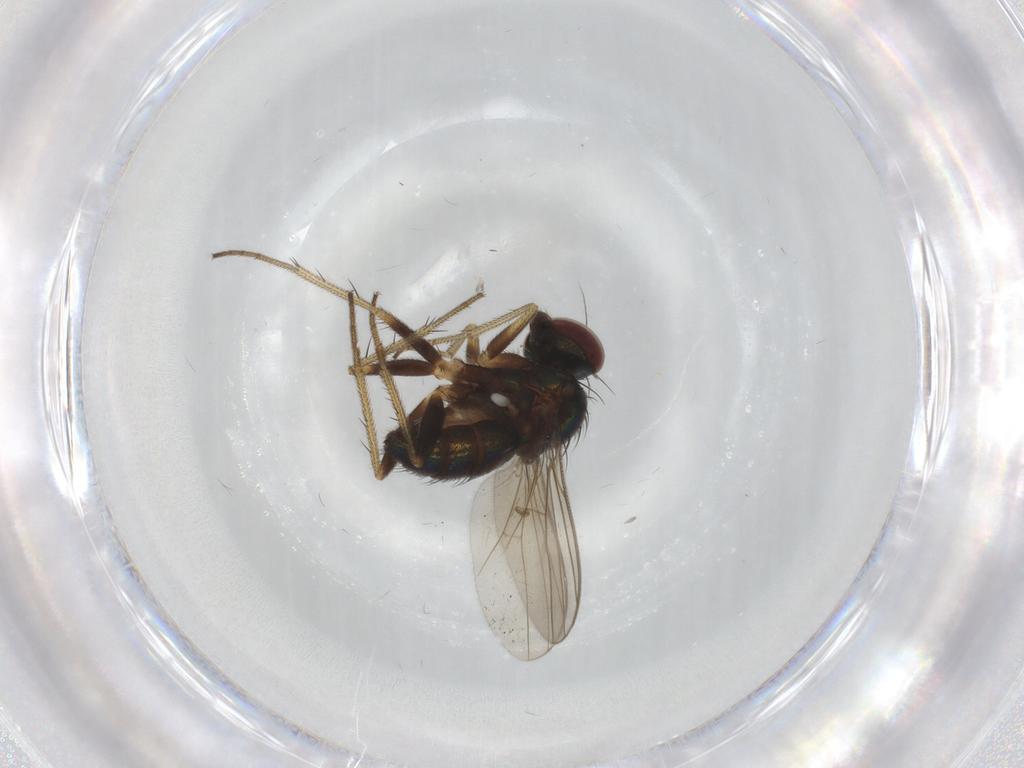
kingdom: Animalia
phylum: Arthropoda
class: Insecta
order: Diptera
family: Cecidomyiidae
